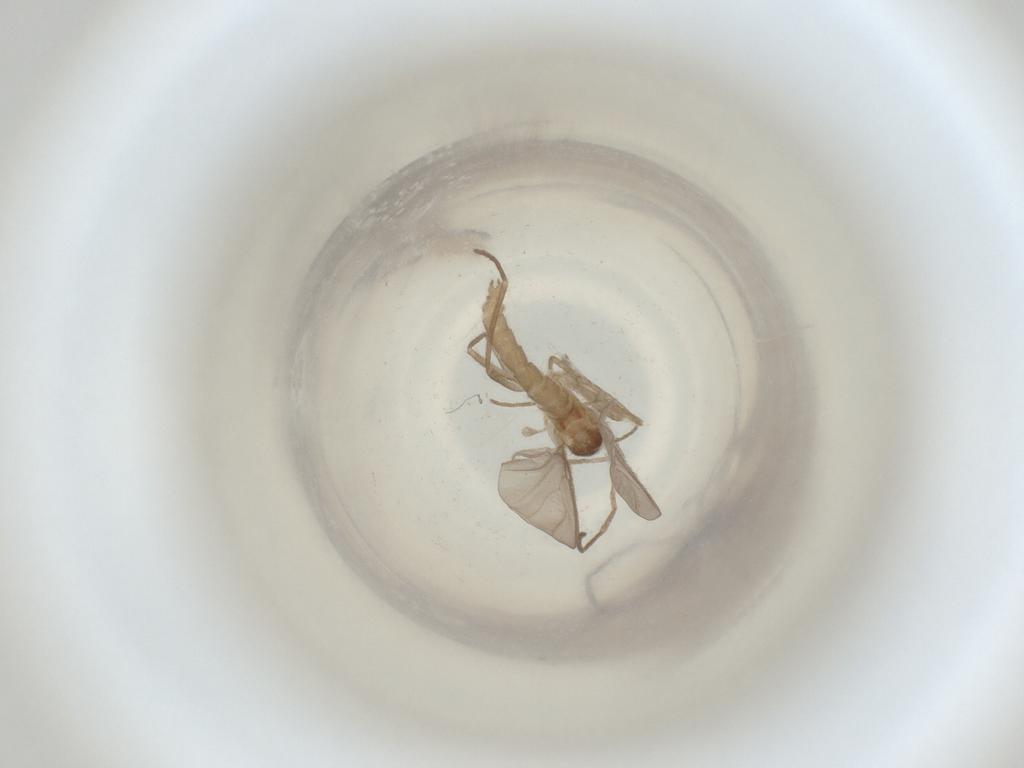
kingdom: Animalia
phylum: Arthropoda
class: Insecta
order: Diptera
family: Cecidomyiidae
